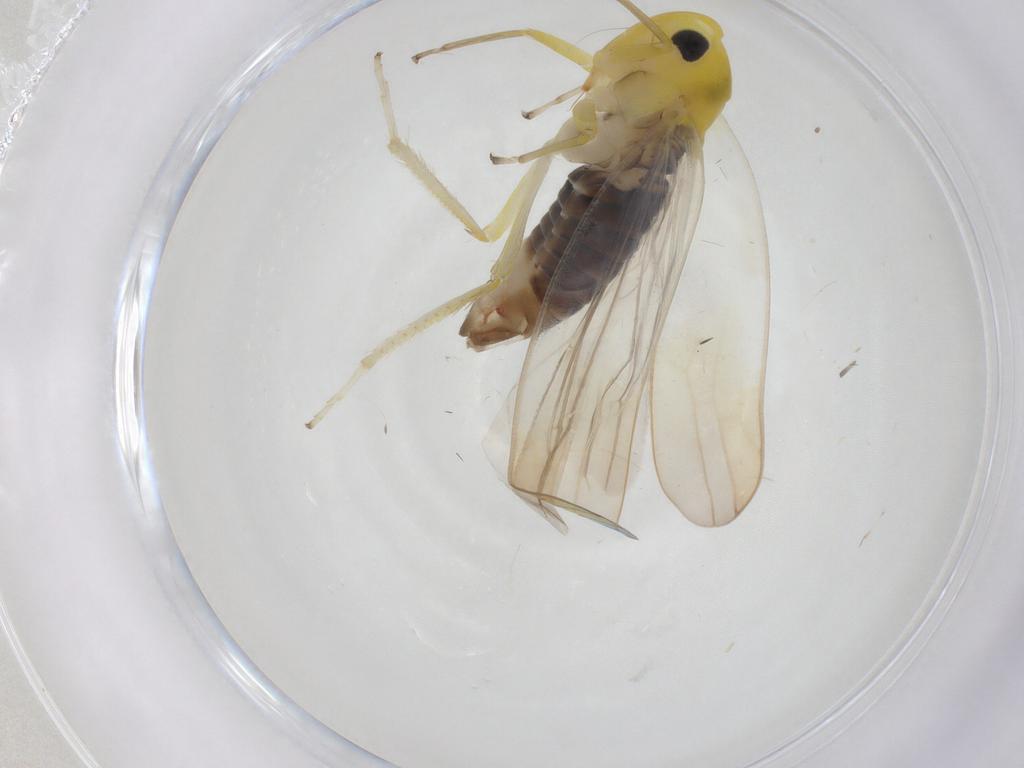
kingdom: Animalia
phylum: Arthropoda
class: Insecta
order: Hemiptera
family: Cicadellidae
